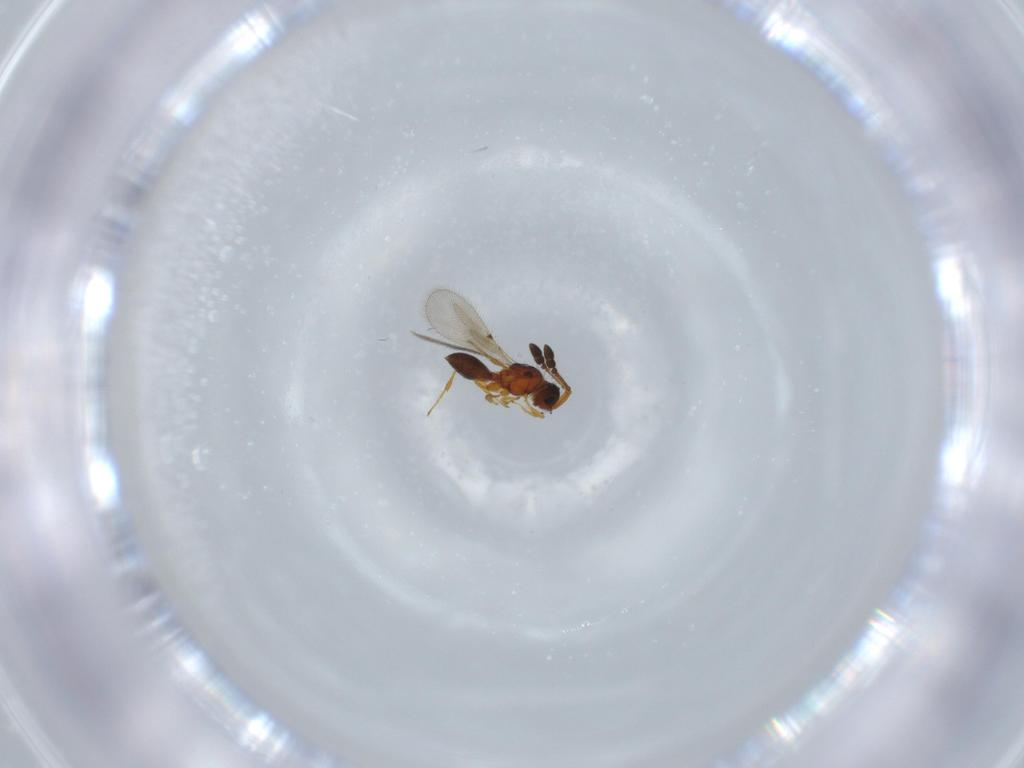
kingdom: Animalia
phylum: Arthropoda
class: Insecta
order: Hymenoptera
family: Diapriidae
